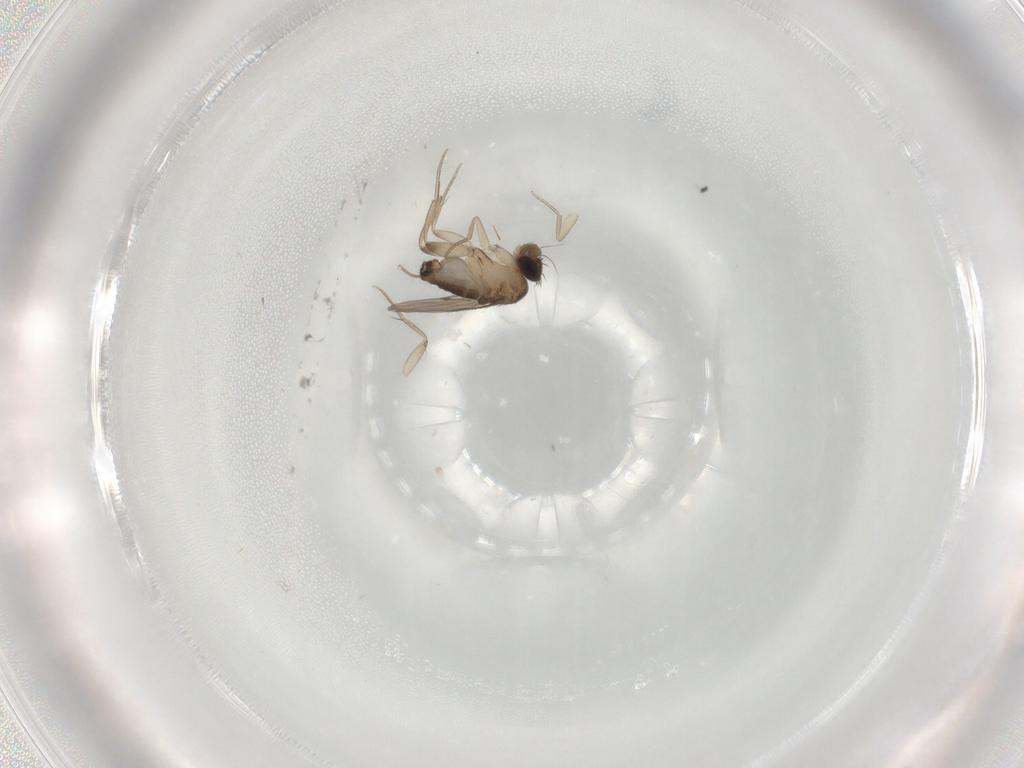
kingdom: Animalia
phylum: Arthropoda
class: Insecta
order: Diptera
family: Phoridae
